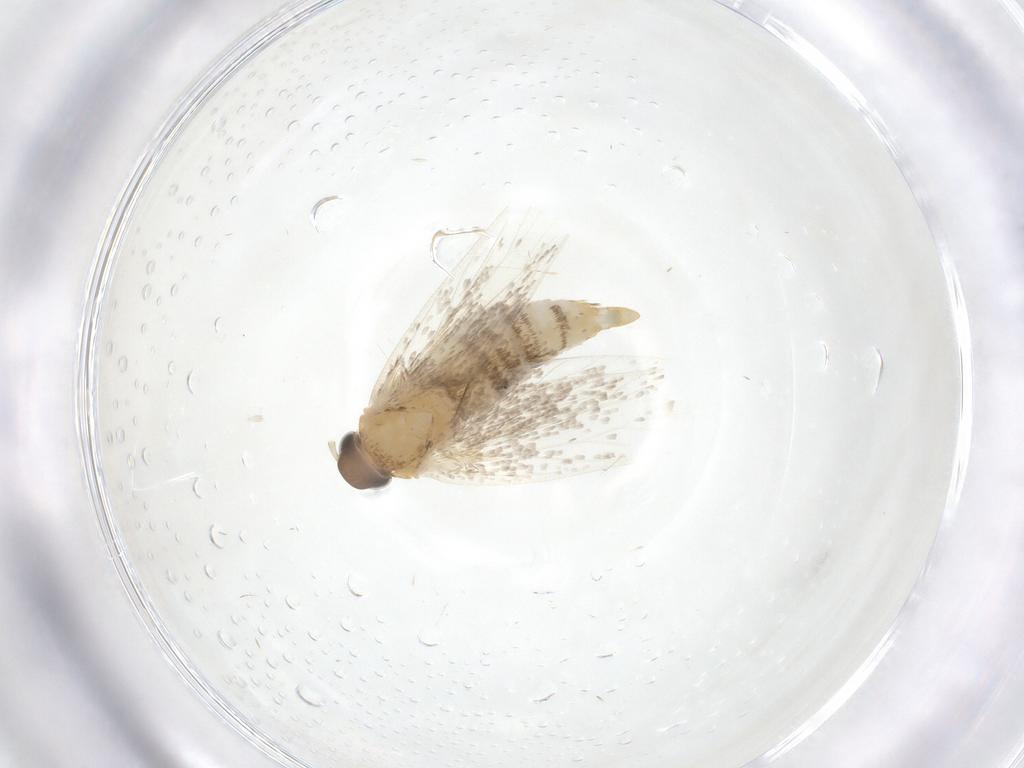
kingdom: Animalia
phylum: Arthropoda
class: Insecta
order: Lepidoptera
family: Oecophoridae
